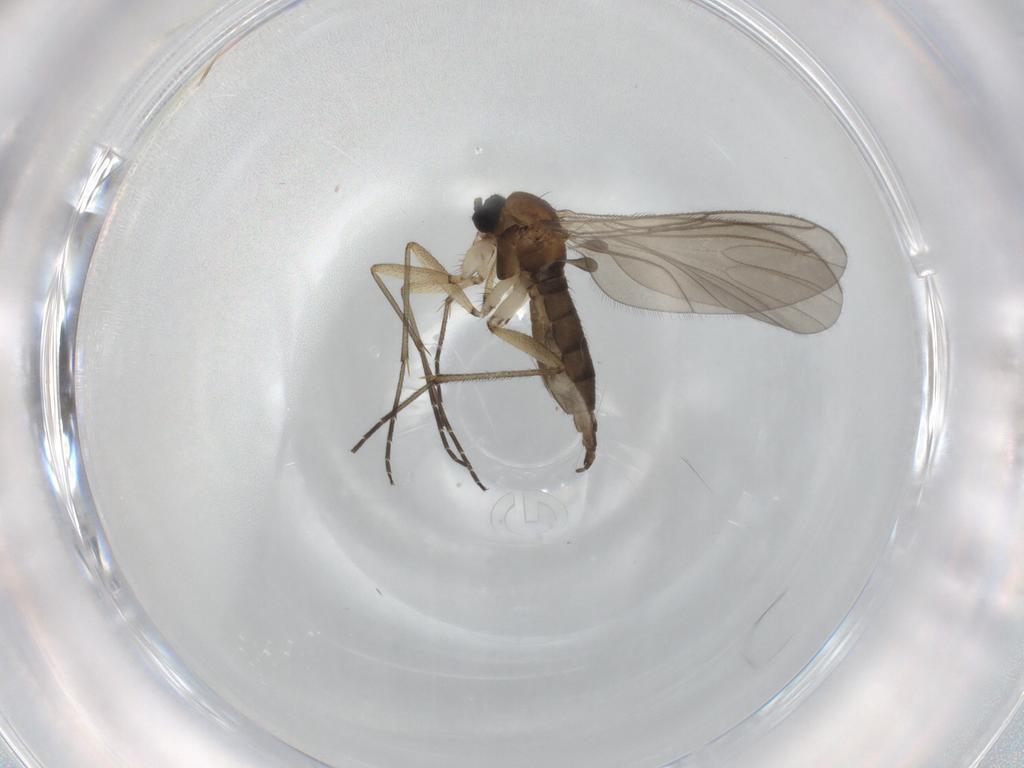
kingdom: Animalia
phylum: Arthropoda
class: Insecta
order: Diptera
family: Sciaridae
